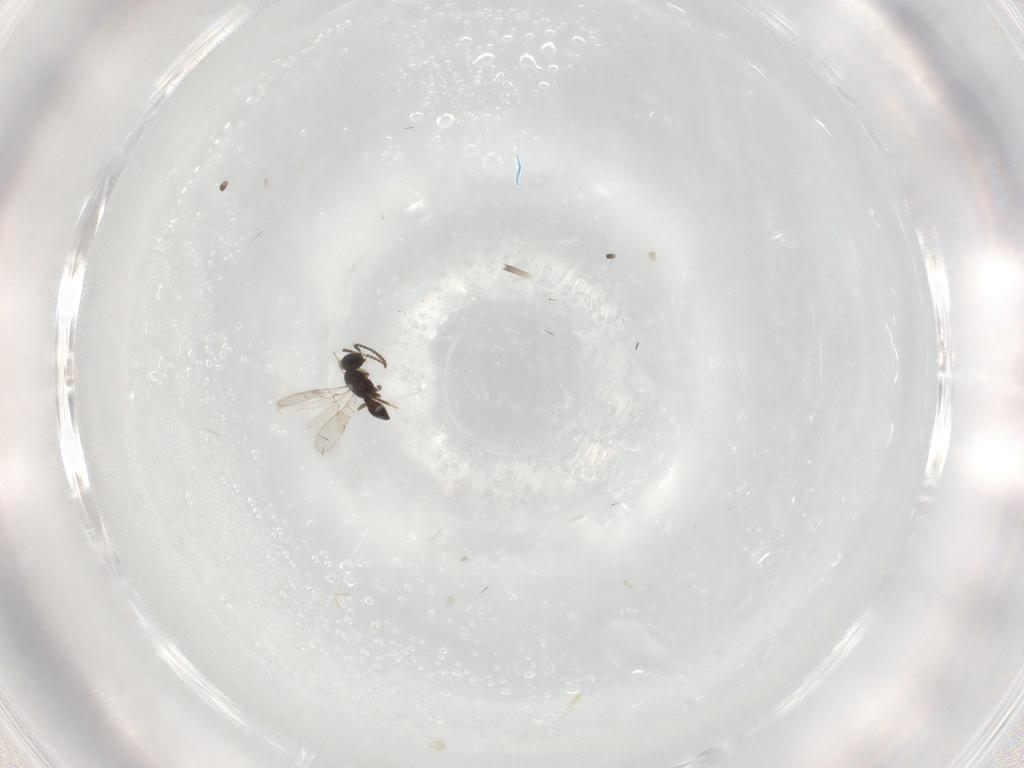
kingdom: Animalia
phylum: Arthropoda
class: Insecta
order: Hymenoptera
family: Scelionidae
